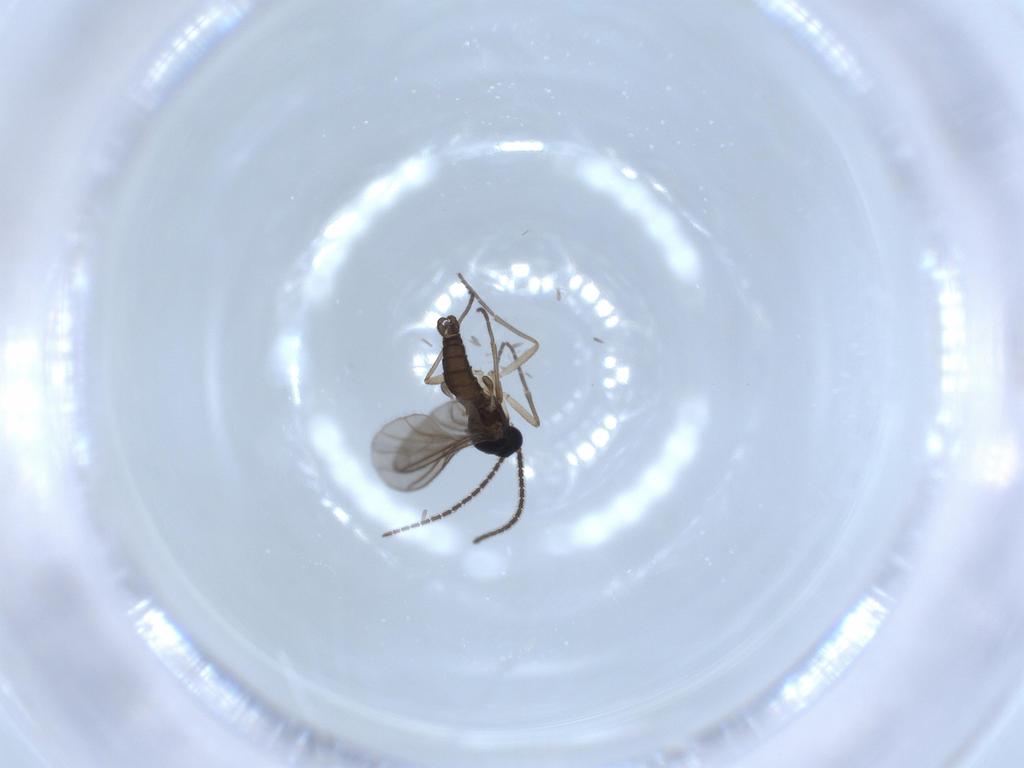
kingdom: Animalia
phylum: Arthropoda
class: Insecta
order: Diptera
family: Sciaridae
